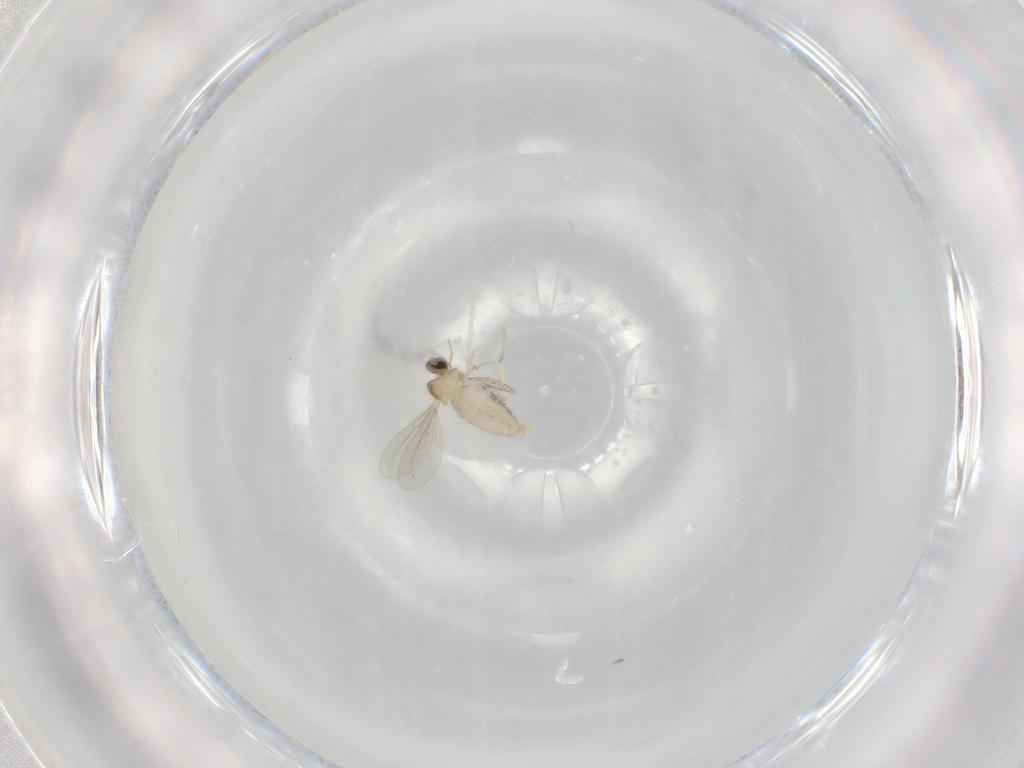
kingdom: Animalia
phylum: Arthropoda
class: Insecta
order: Diptera
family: Cecidomyiidae
